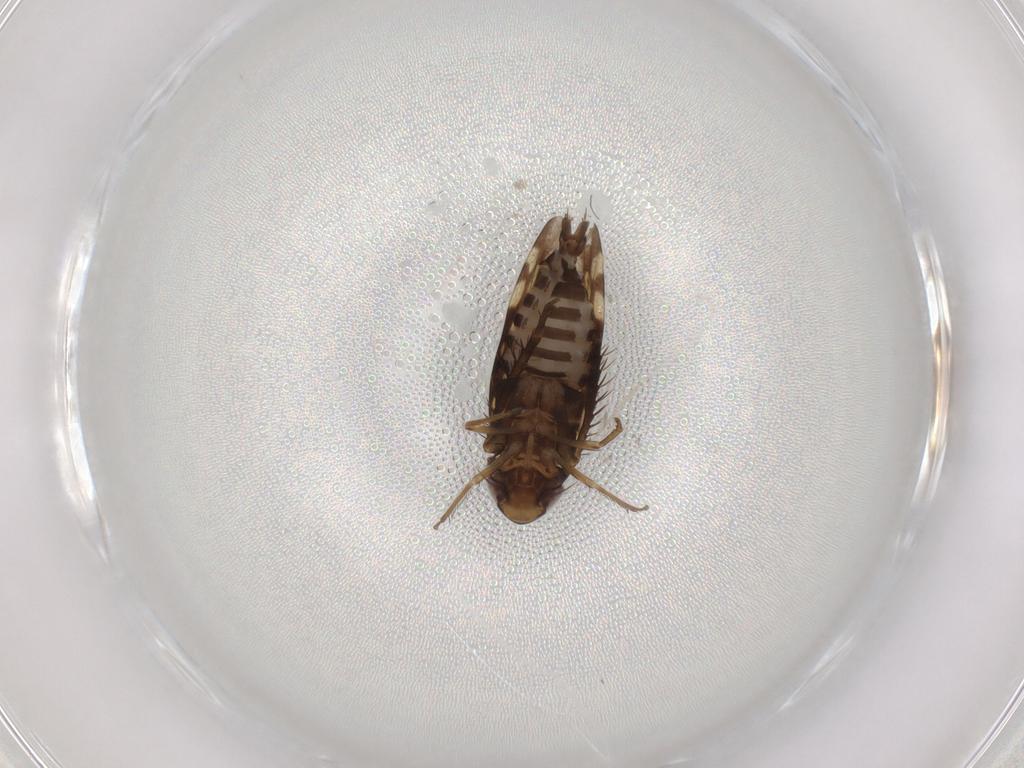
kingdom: Animalia
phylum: Arthropoda
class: Insecta
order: Hemiptera
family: Cicadellidae
